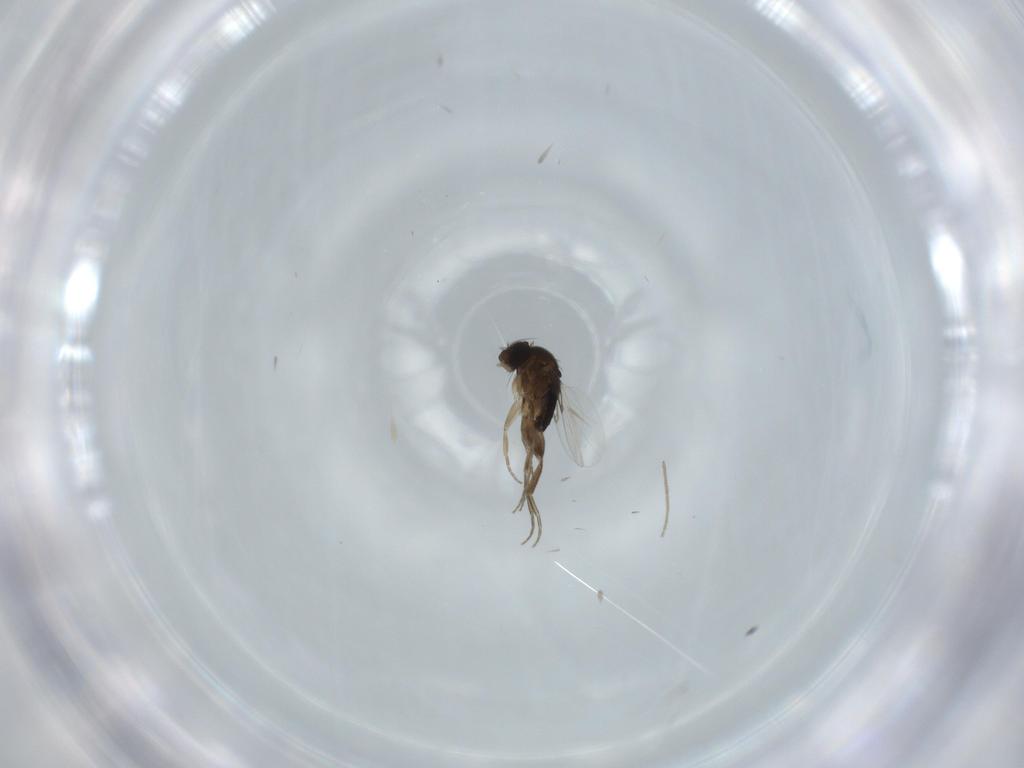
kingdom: Animalia
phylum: Arthropoda
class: Insecta
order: Diptera
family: Phoridae
